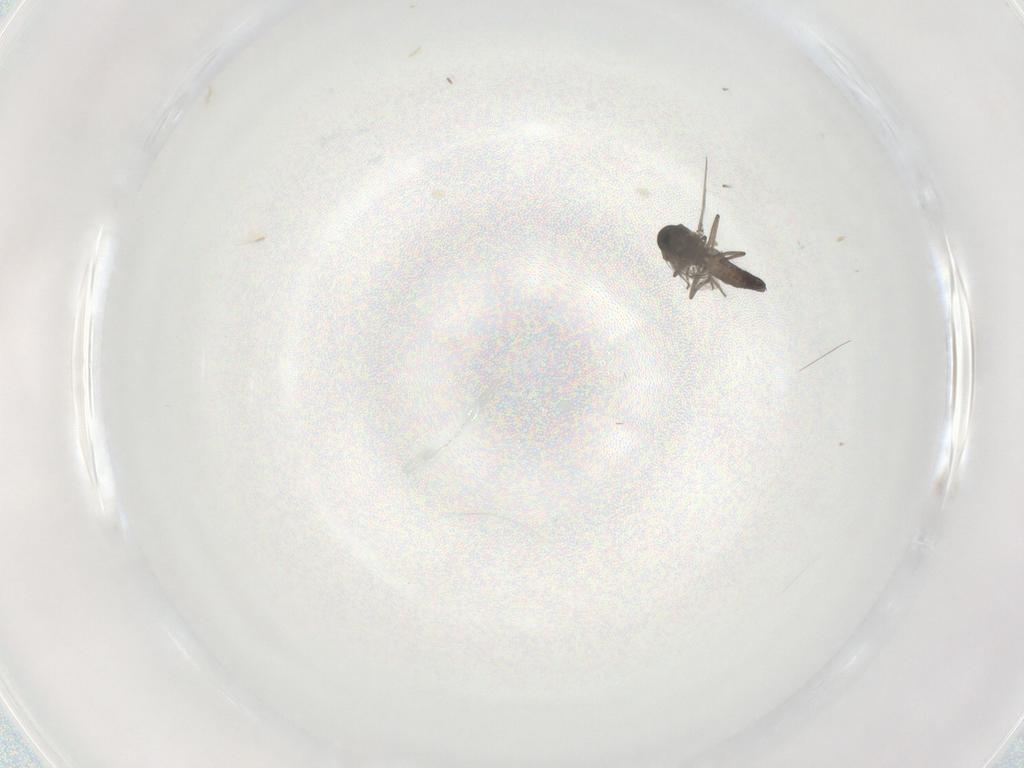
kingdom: Animalia
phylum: Arthropoda
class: Insecta
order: Diptera
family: Ceratopogonidae
